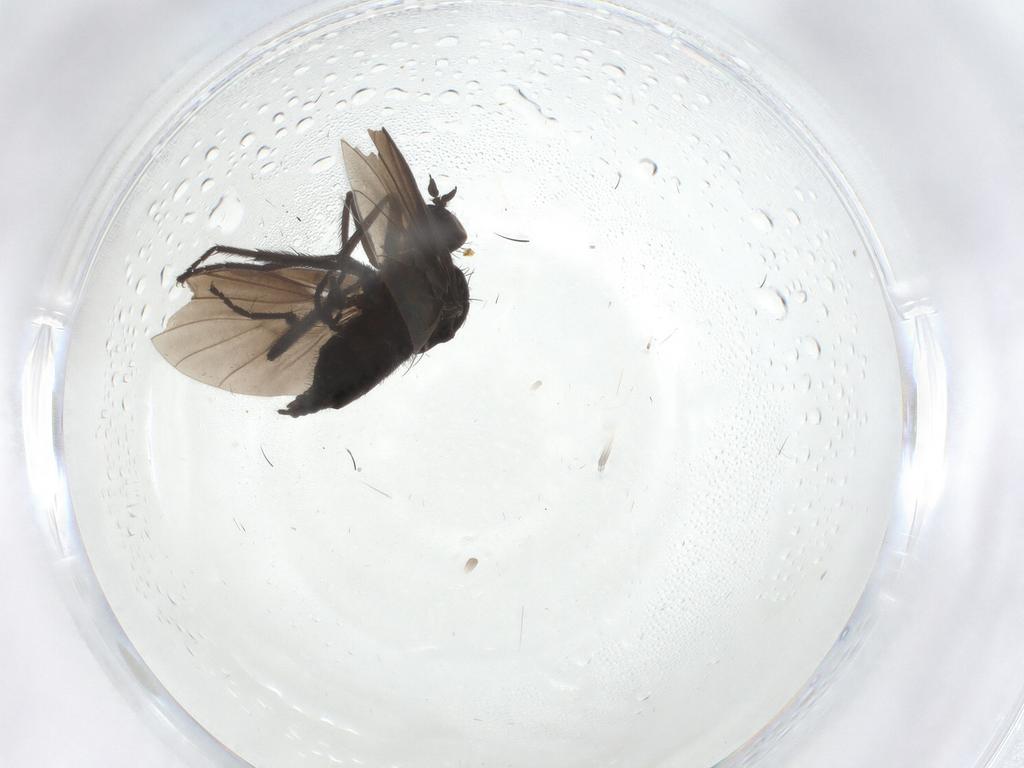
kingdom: Animalia
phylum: Arthropoda
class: Insecta
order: Diptera
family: Empididae
